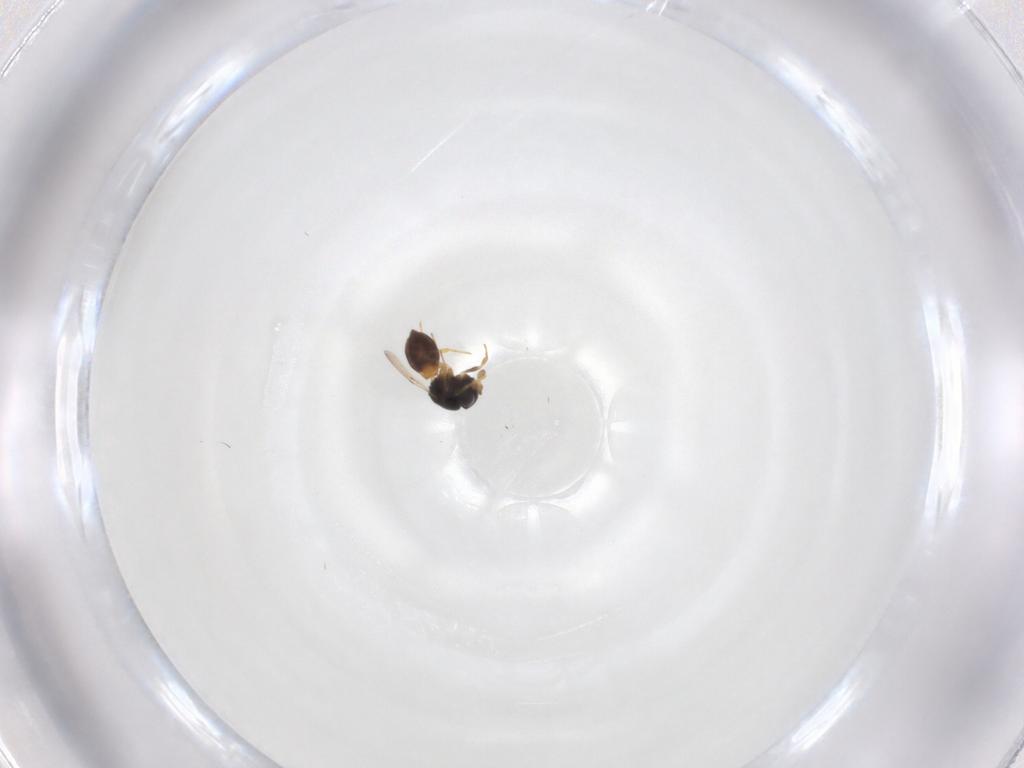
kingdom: Animalia
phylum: Arthropoda
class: Insecta
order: Hymenoptera
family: Scelionidae
